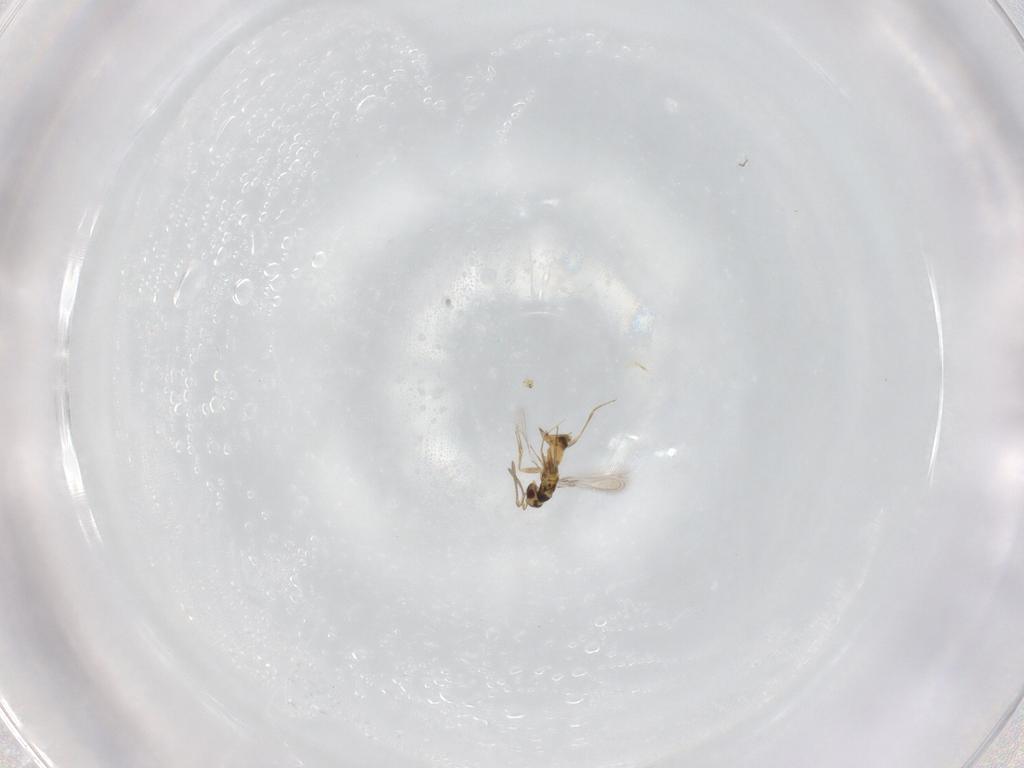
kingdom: Animalia
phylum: Arthropoda
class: Insecta
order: Hymenoptera
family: Mymaridae
